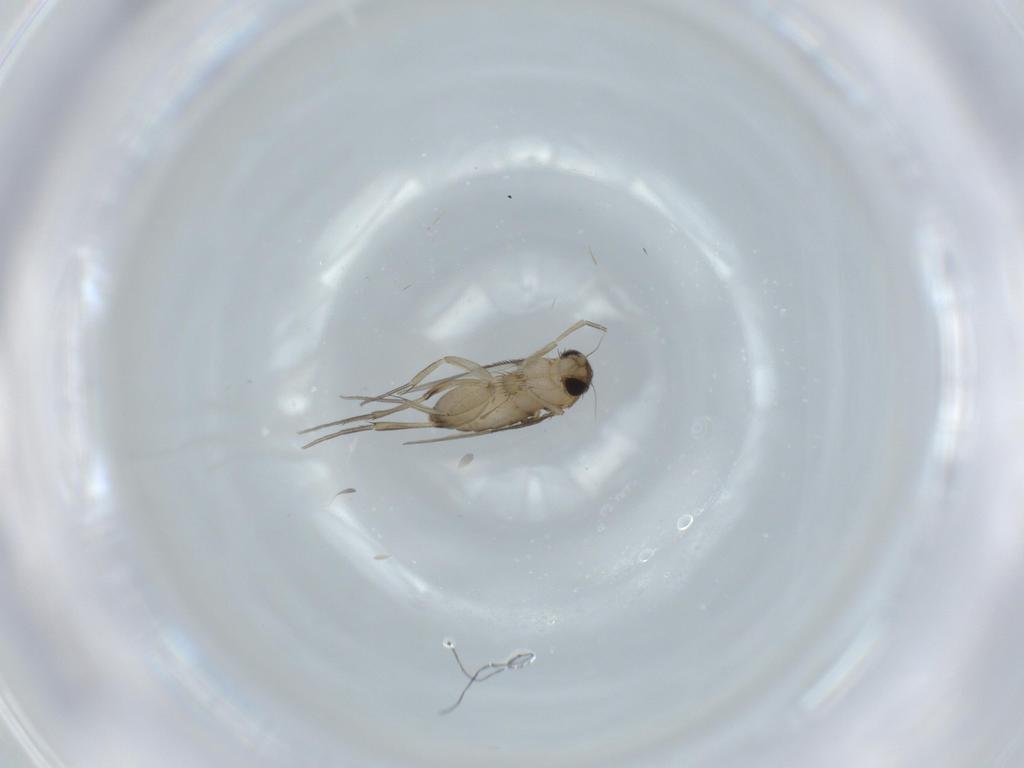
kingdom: Animalia
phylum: Arthropoda
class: Insecta
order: Diptera
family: Phoridae
